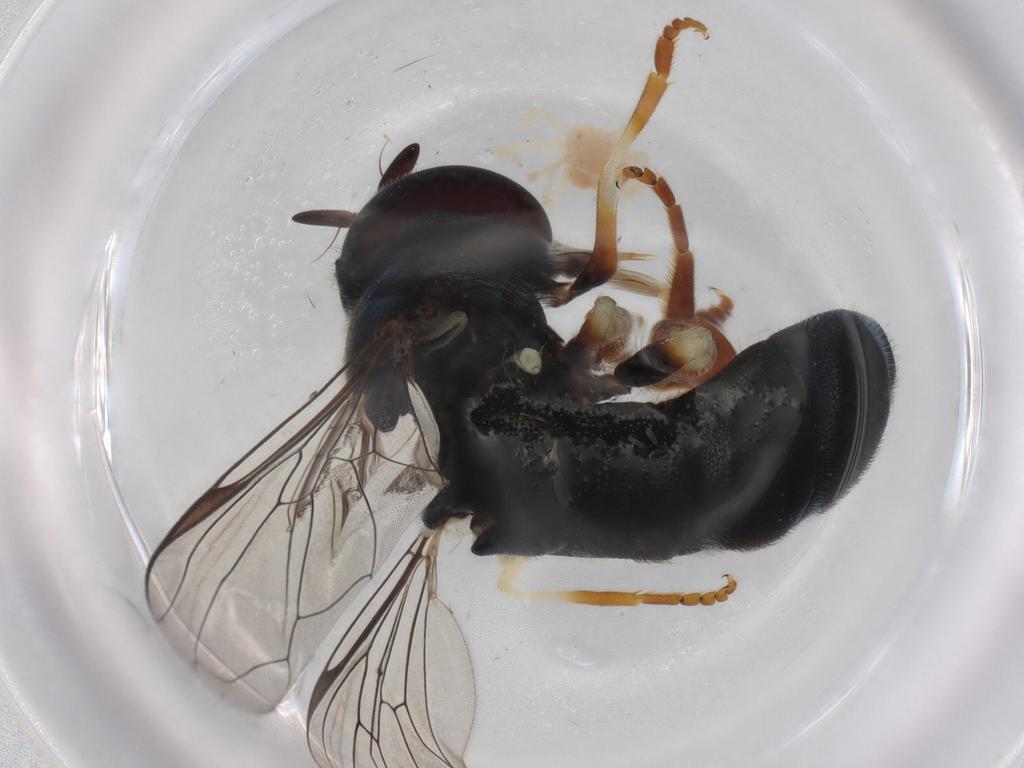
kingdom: Animalia
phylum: Arthropoda
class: Insecta
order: Diptera
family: Syrphidae
